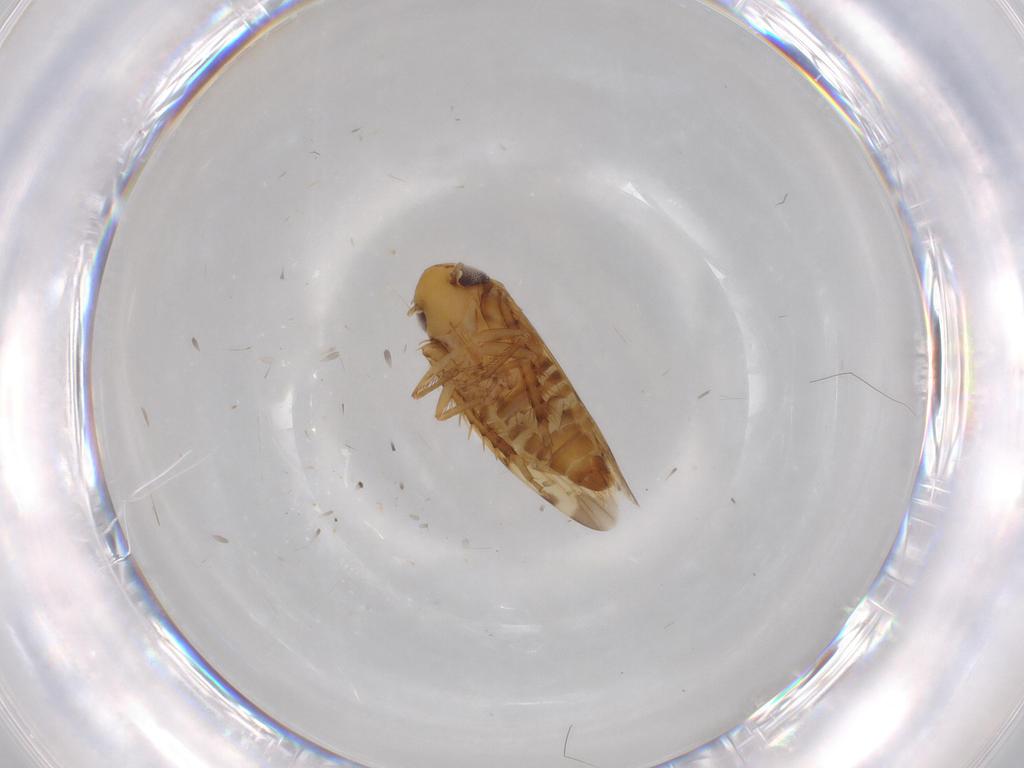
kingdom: Animalia
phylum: Arthropoda
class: Insecta
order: Hemiptera
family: Cicadellidae
